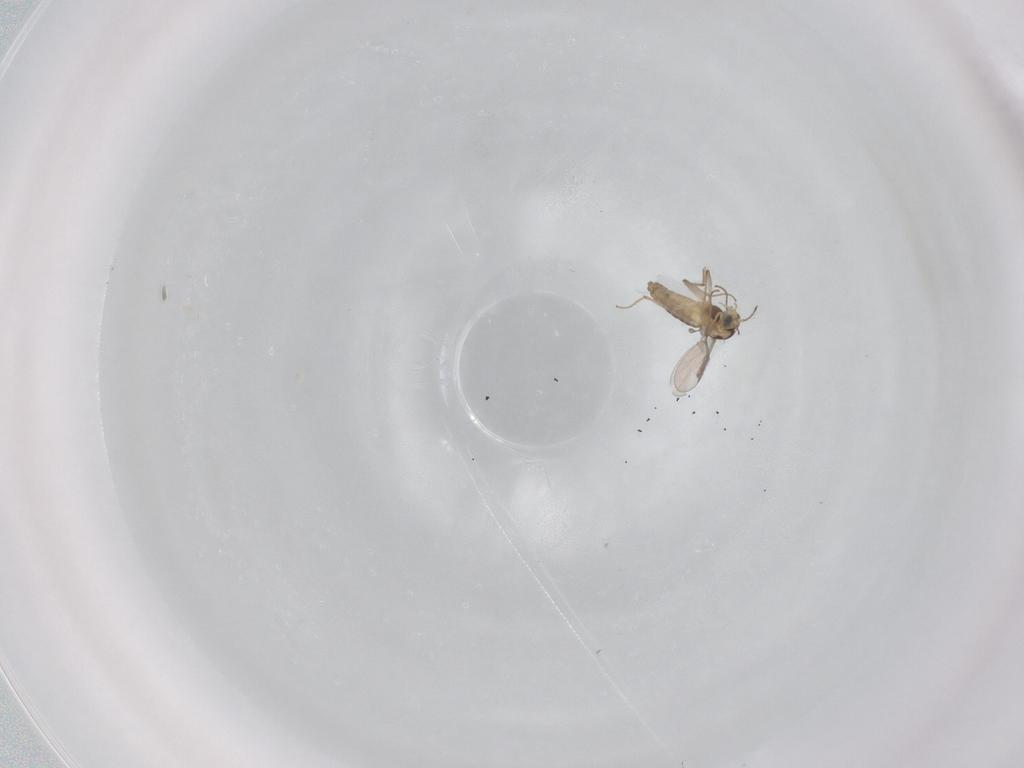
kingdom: Animalia
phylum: Arthropoda
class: Insecta
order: Diptera
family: Chironomidae
